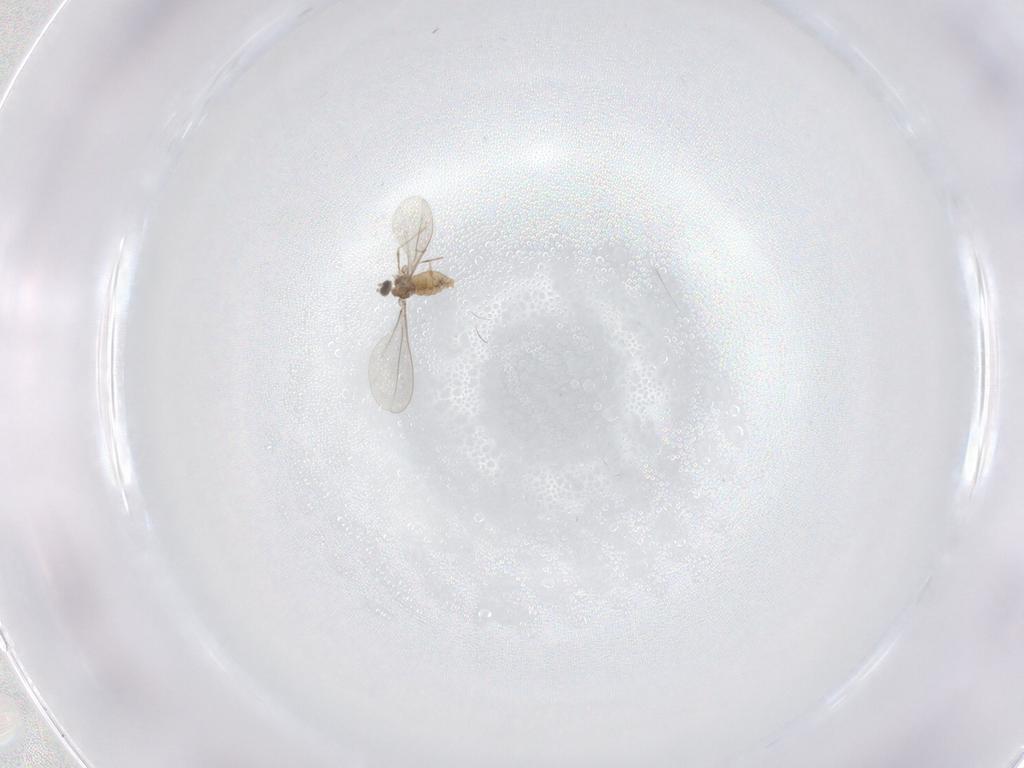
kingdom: Animalia
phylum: Arthropoda
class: Insecta
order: Diptera
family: Cecidomyiidae
